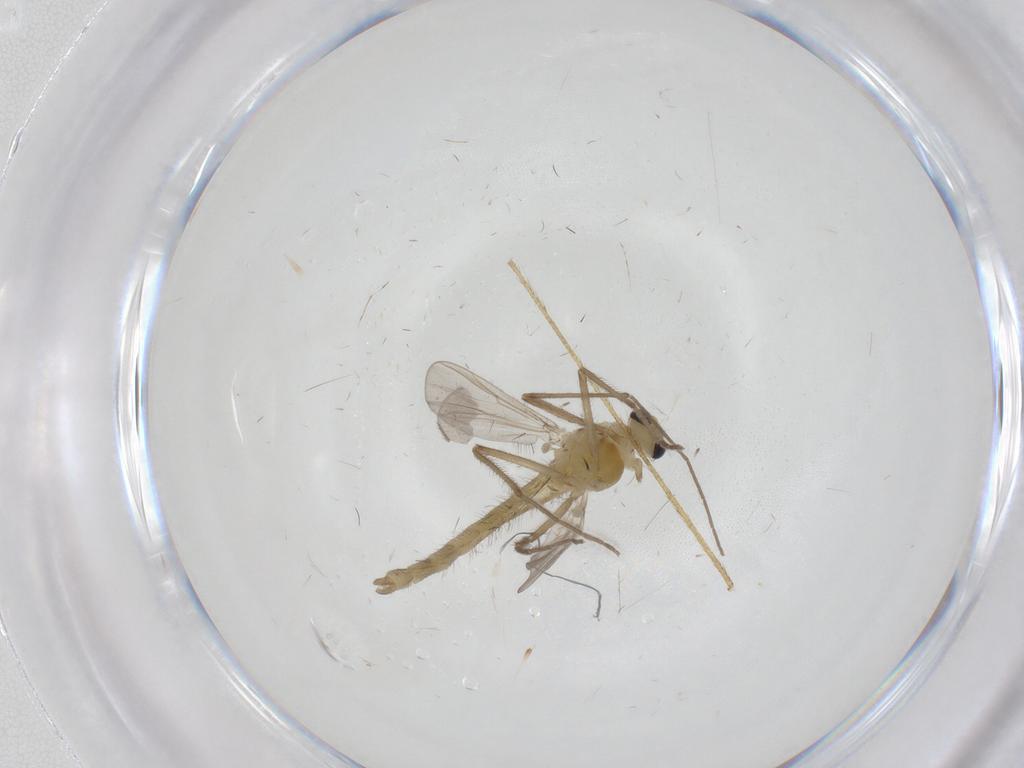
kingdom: Animalia
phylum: Arthropoda
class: Insecta
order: Diptera
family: Chironomidae
